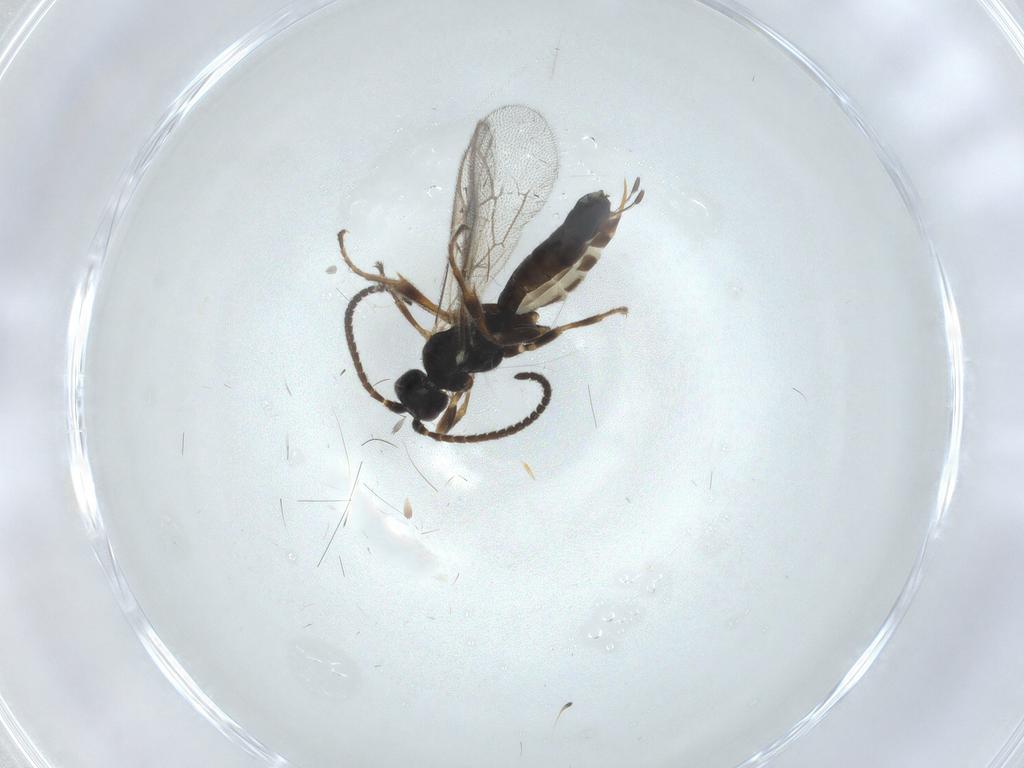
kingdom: Animalia
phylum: Arthropoda
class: Insecta
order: Hymenoptera
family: Ichneumonidae
